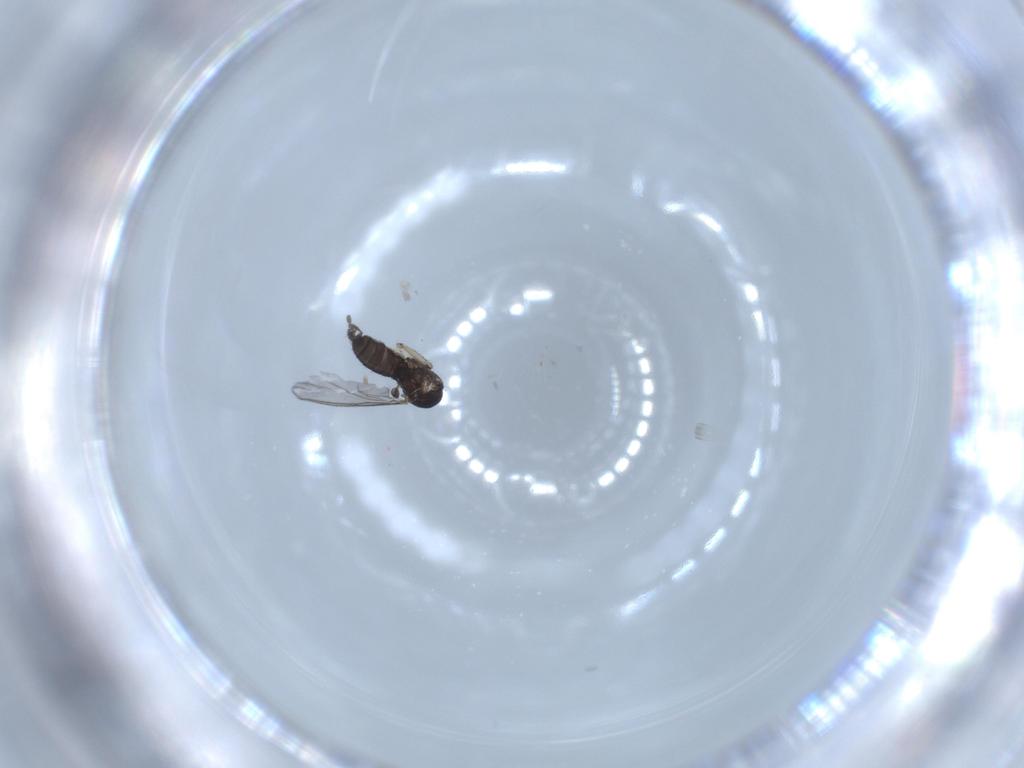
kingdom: Animalia
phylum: Arthropoda
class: Insecta
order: Diptera
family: Sciaridae
